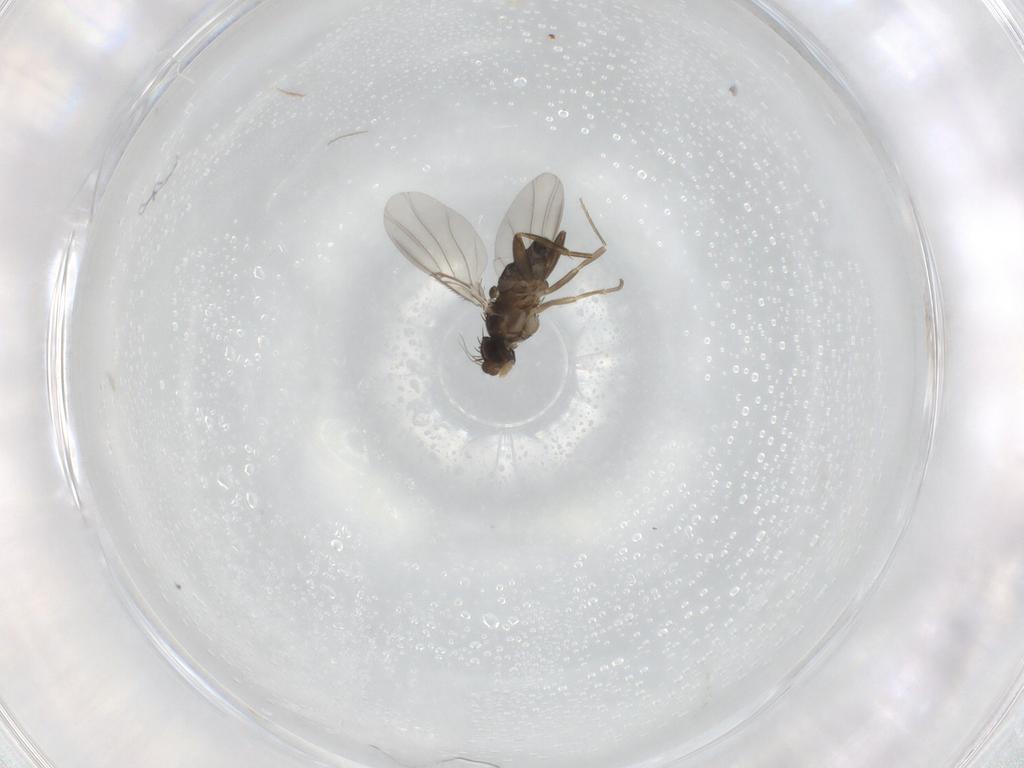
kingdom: Animalia
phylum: Arthropoda
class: Insecta
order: Diptera
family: Phoridae
